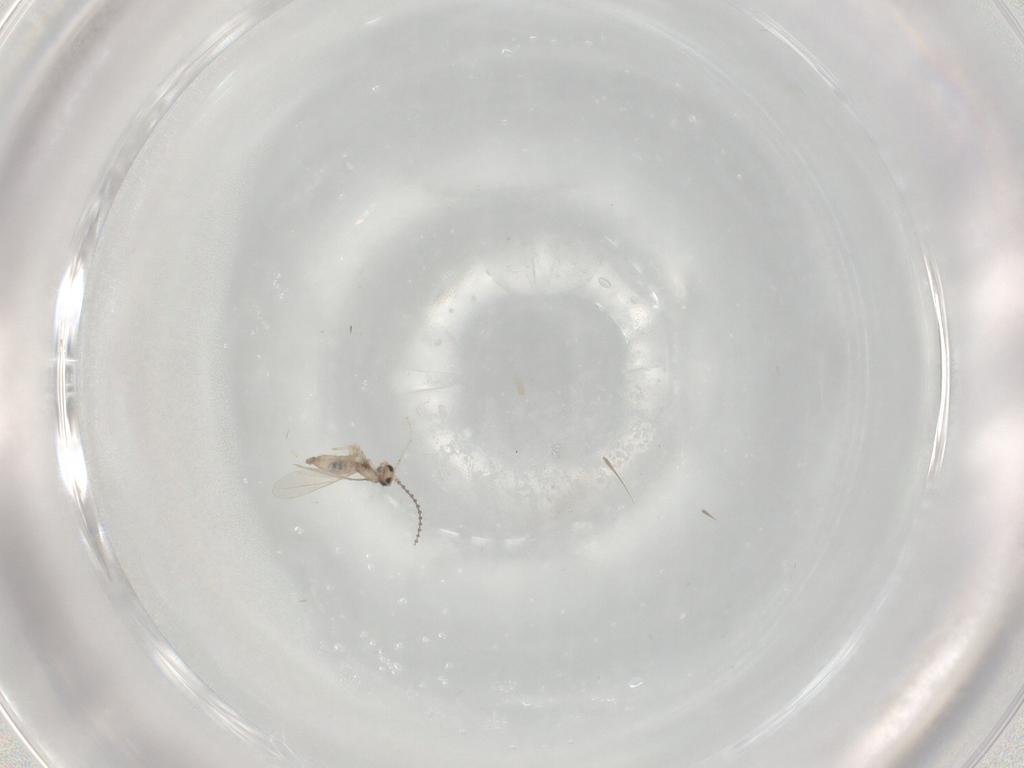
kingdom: Animalia
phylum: Arthropoda
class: Insecta
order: Diptera
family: Cecidomyiidae
